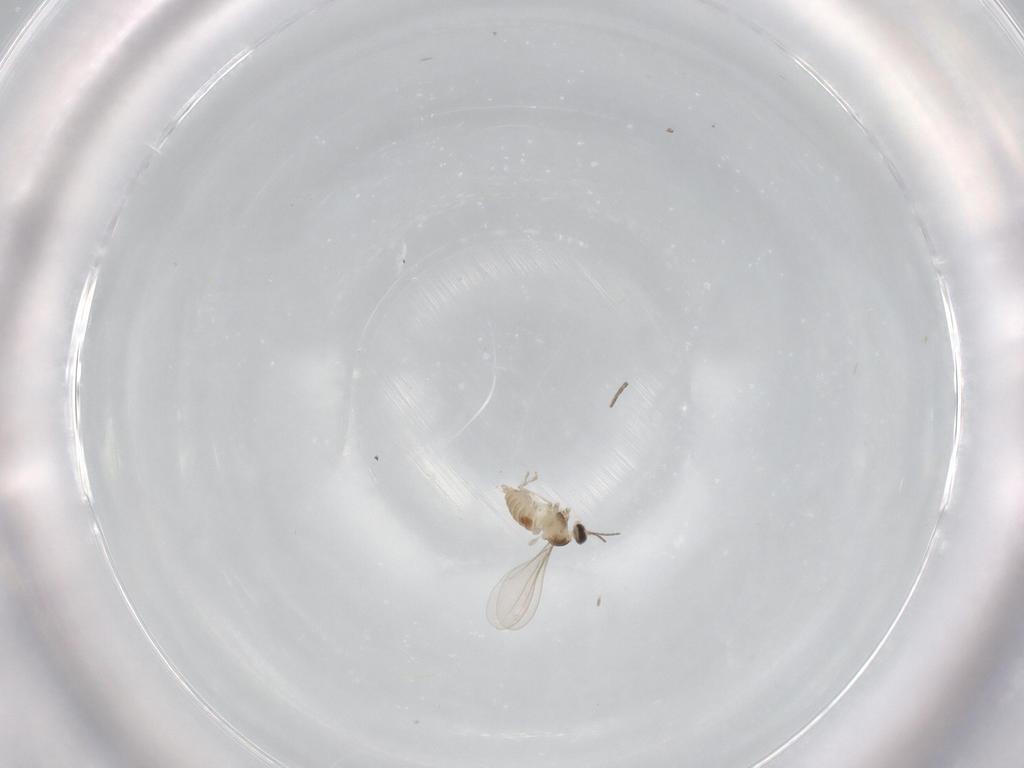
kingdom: Animalia
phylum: Arthropoda
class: Insecta
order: Diptera
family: Cecidomyiidae
